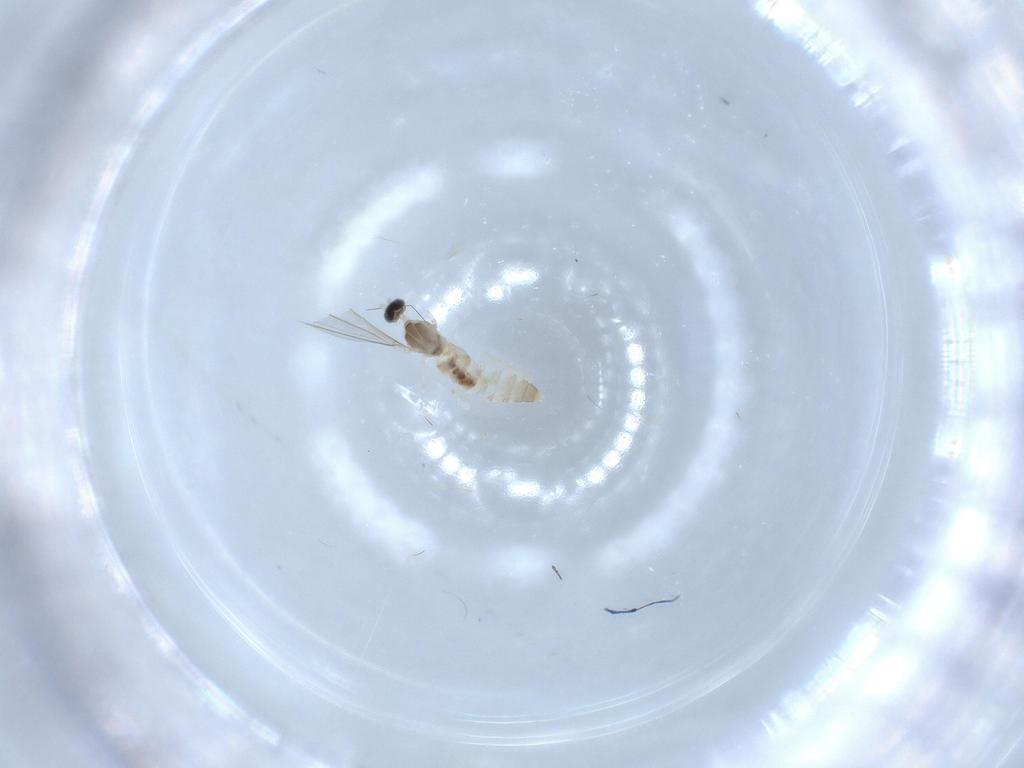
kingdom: Animalia
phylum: Arthropoda
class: Insecta
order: Diptera
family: Cecidomyiidae
